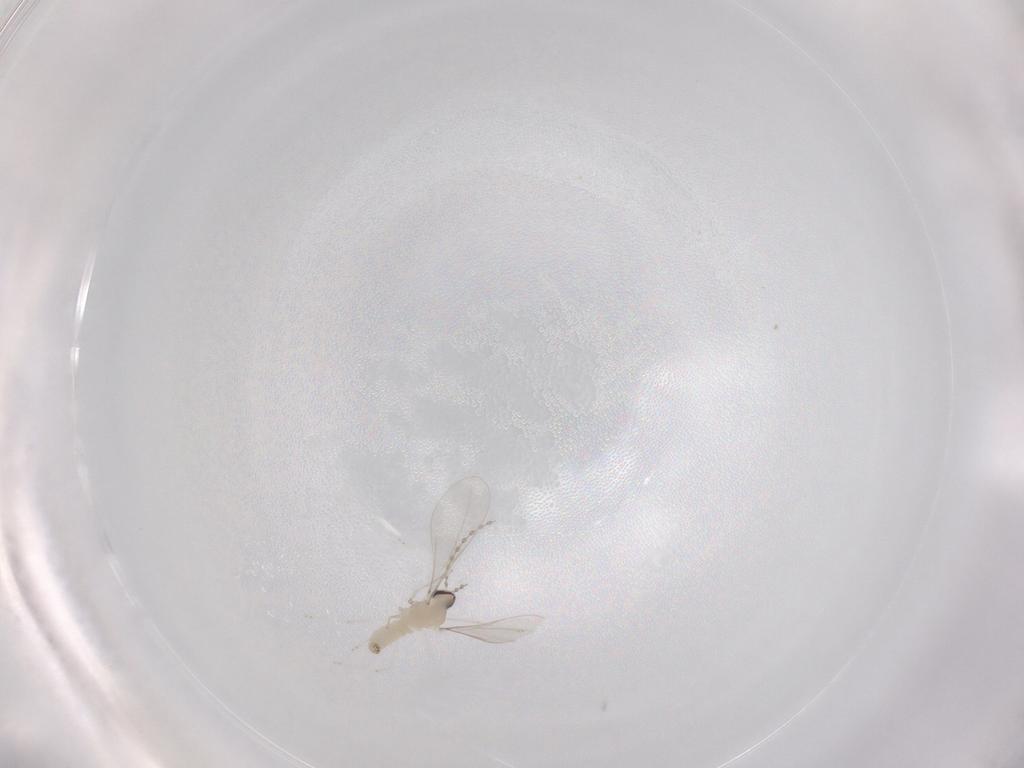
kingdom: Animalia
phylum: Arthropoda
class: Insecta
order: Diptera
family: Cecidomyiidae
